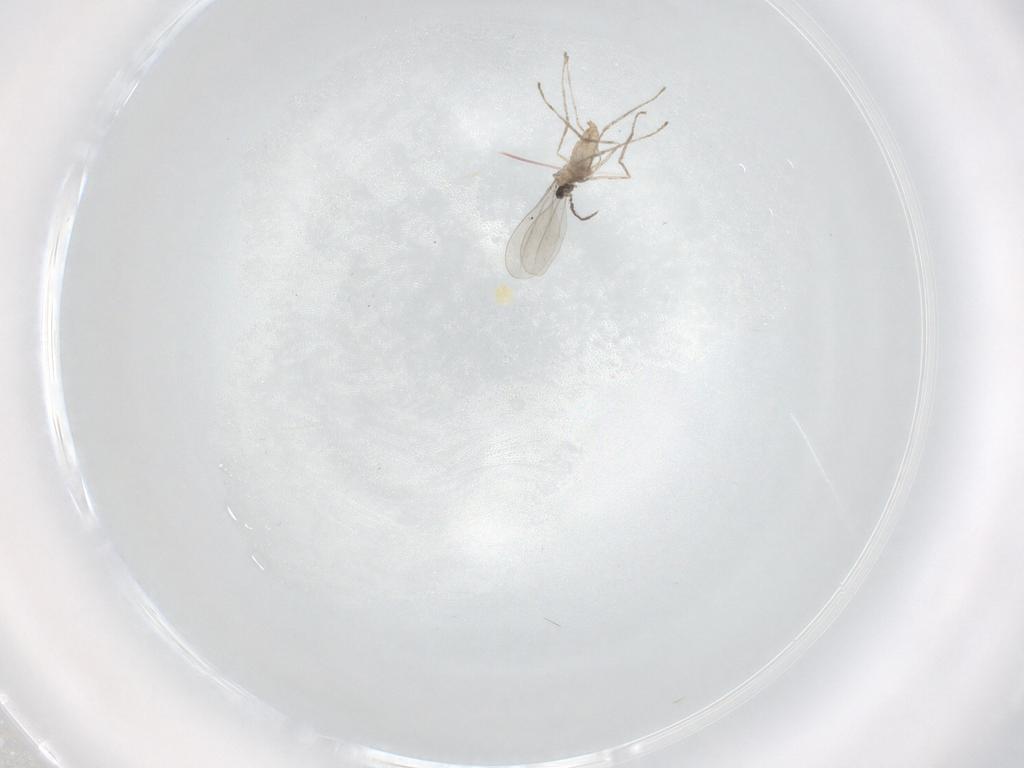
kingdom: Animalia
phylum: Arthropoda
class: Insecta
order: Diptera
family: Cecidomyiidae
